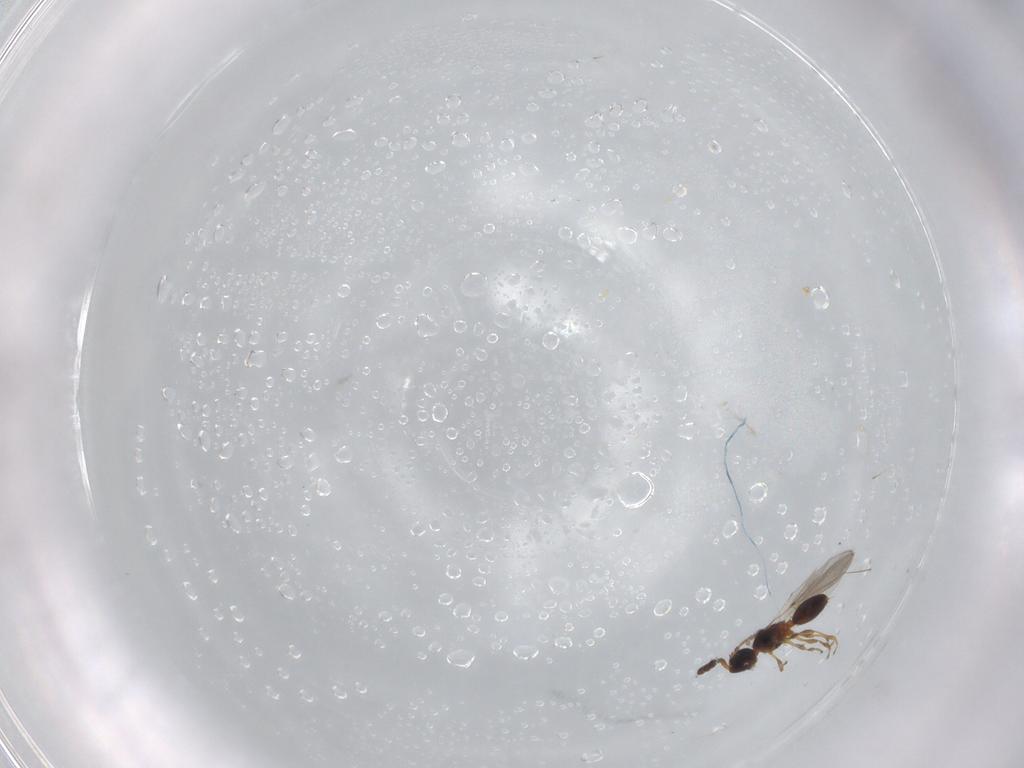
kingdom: Animalia
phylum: Arthropoda
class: Insecta
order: Hymenoptera
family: Diapriidae
